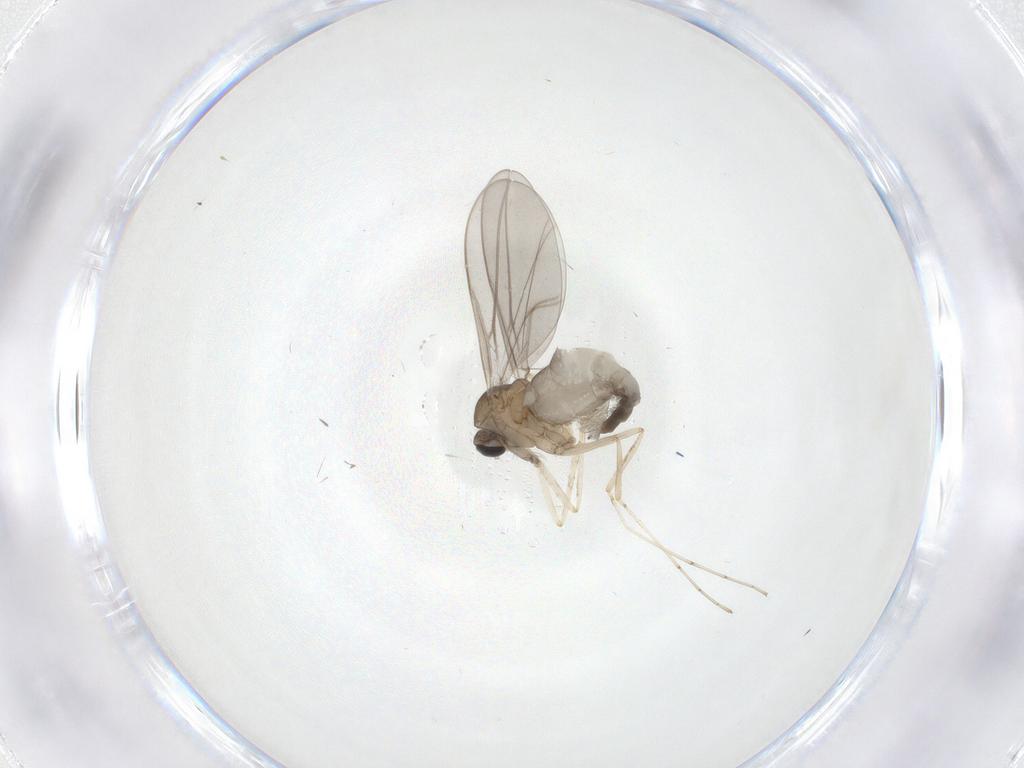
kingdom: Animalia
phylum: Arthropoda
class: Insecta
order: Diptera
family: Cecidomyiidae
